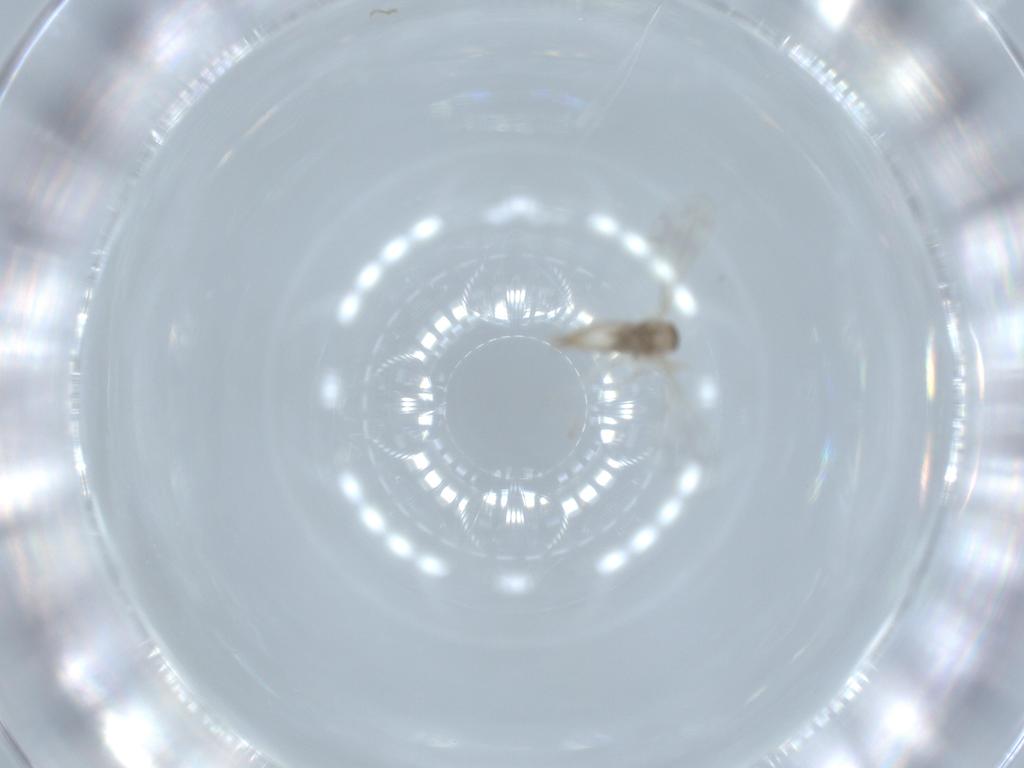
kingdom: Animalia
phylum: Arthropoda
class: Insecta
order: Diptera
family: Cecidomyiidae
